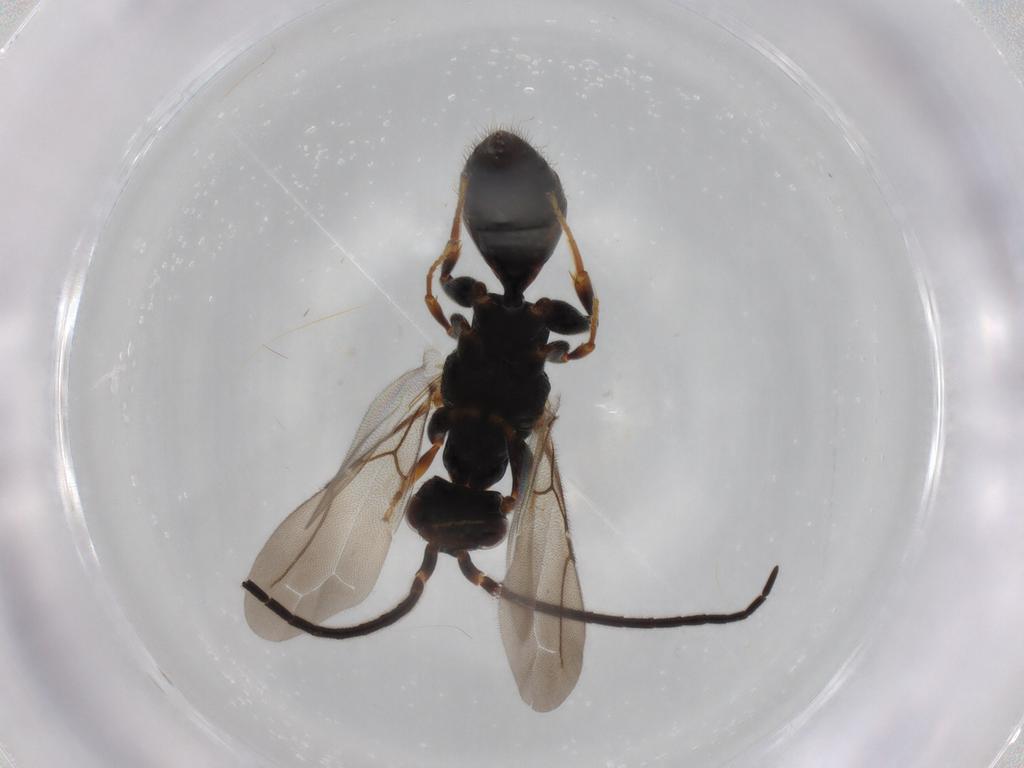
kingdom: Animalia
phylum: Arthropoda
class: Insecta
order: Hymenoptera
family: Bethylidae
